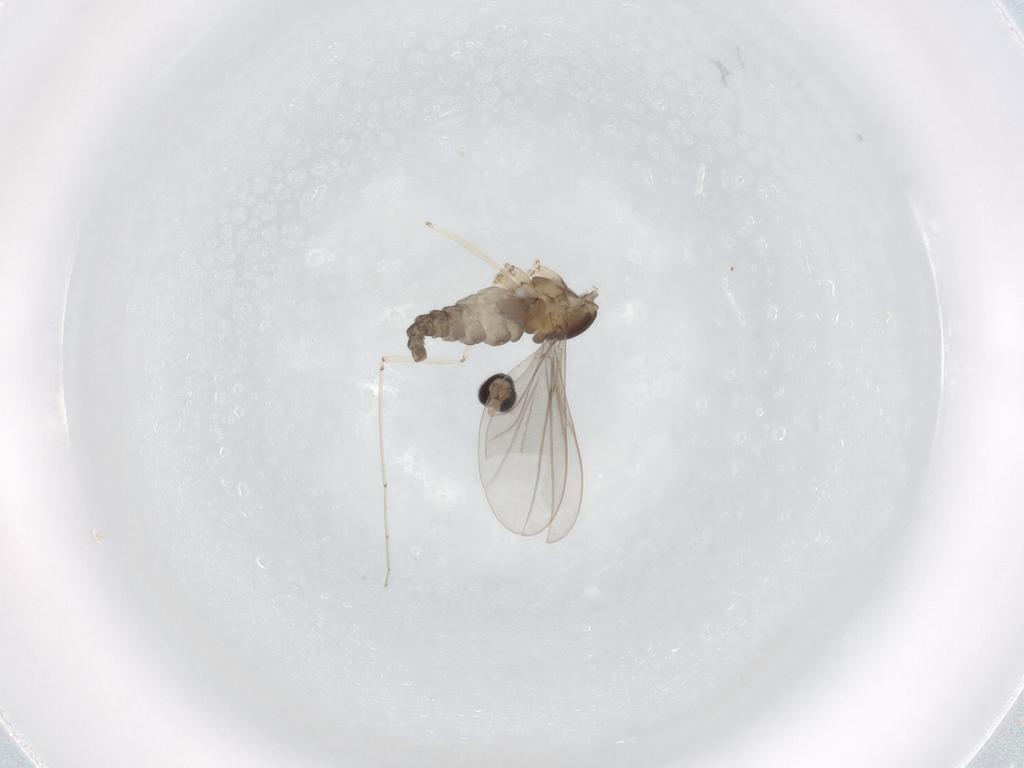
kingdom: Animalia
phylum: Arthropoda
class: Insecta
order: Diptera
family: Cecidomyiidae
